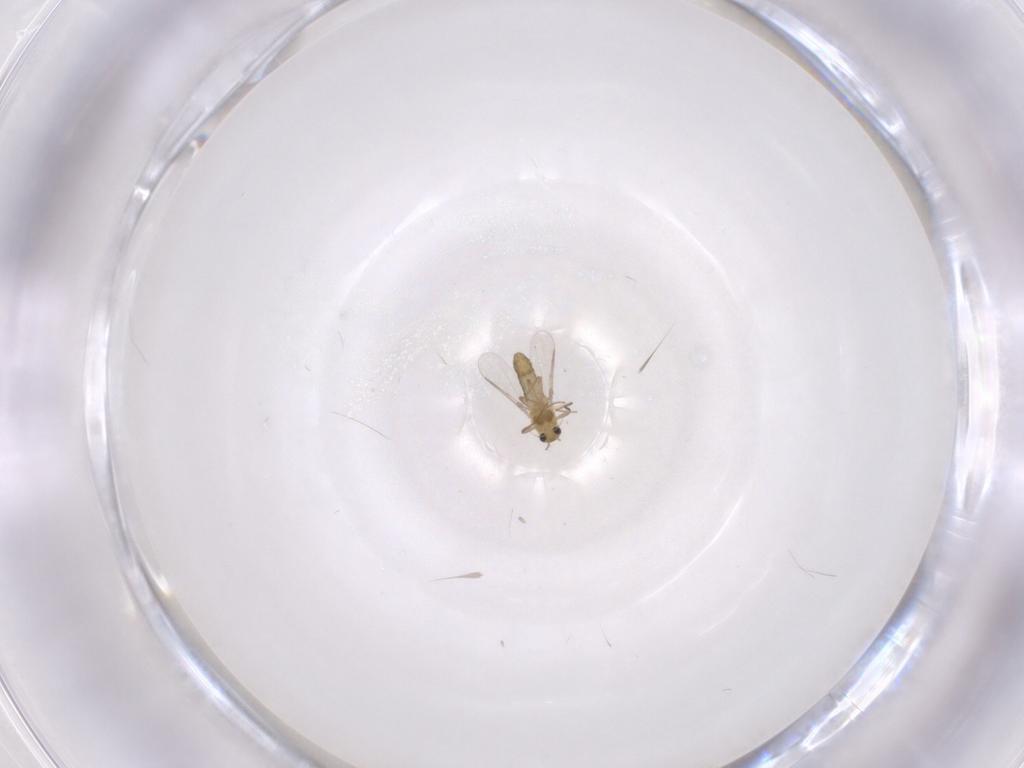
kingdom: Animalia
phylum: Arthropoda
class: Insecta
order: Diptera
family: Chironomidae
